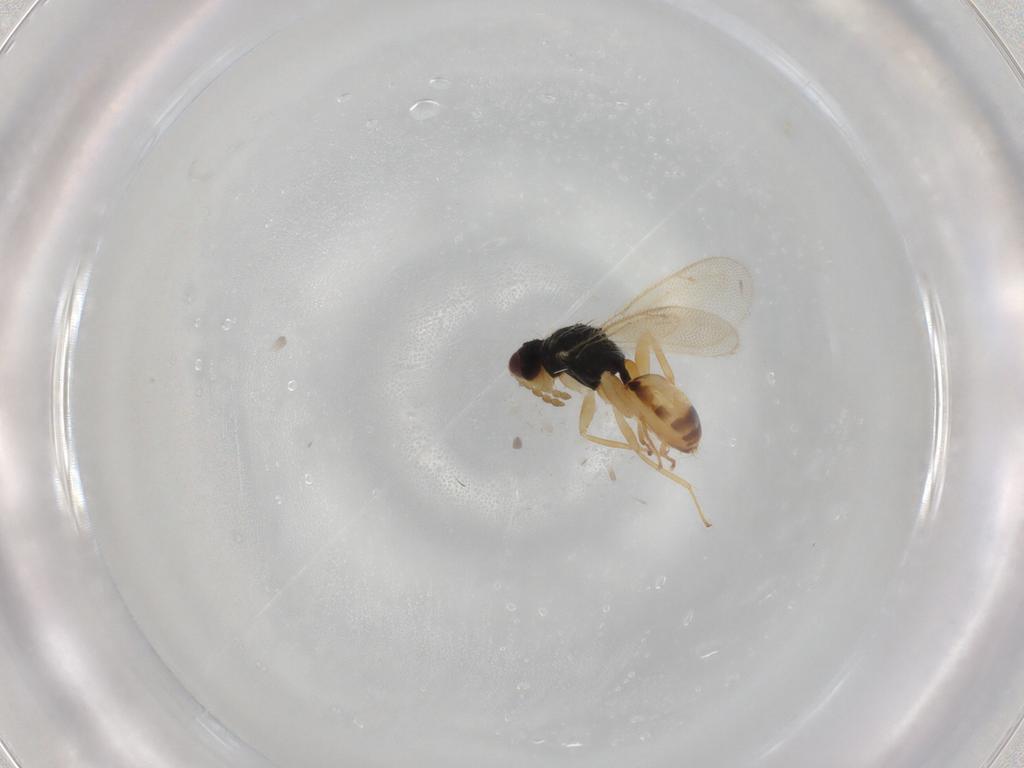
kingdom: Animalia
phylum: Arthropoda
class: Insecta
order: Hymenoptera
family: Eulophidae
